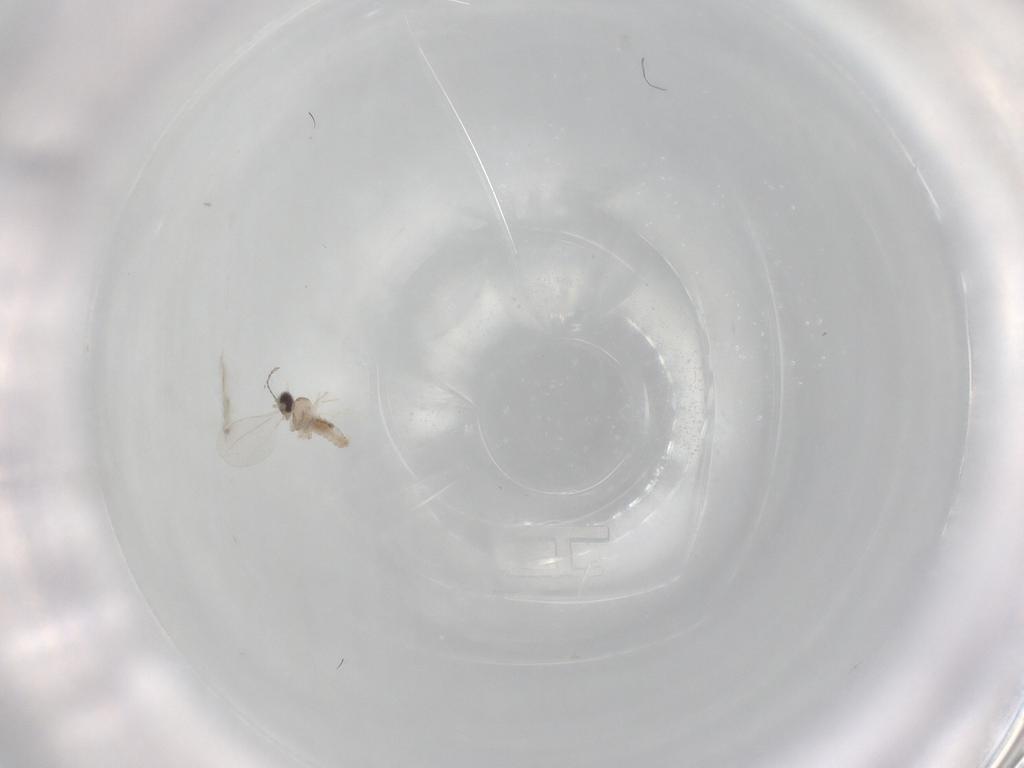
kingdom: Animalia
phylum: Arthropoda
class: Insecta
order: Diptera
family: Cecidomyiidae
